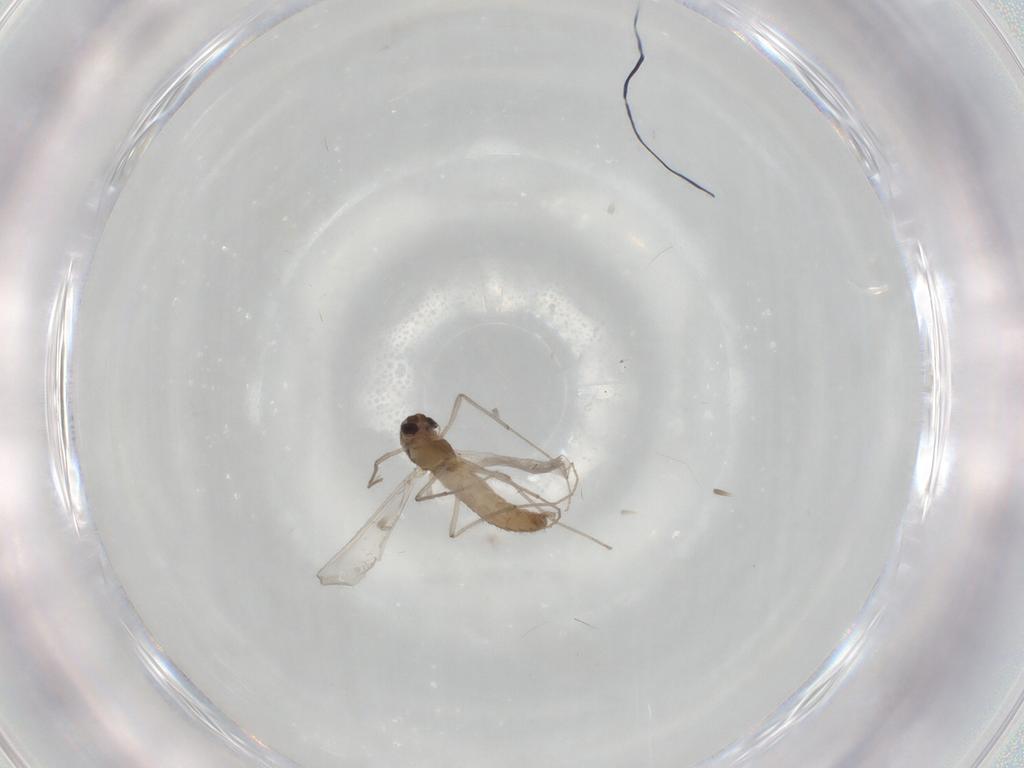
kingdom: Animalia
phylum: Arthropoda
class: Insecta
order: Diptera
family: Chironomidae
